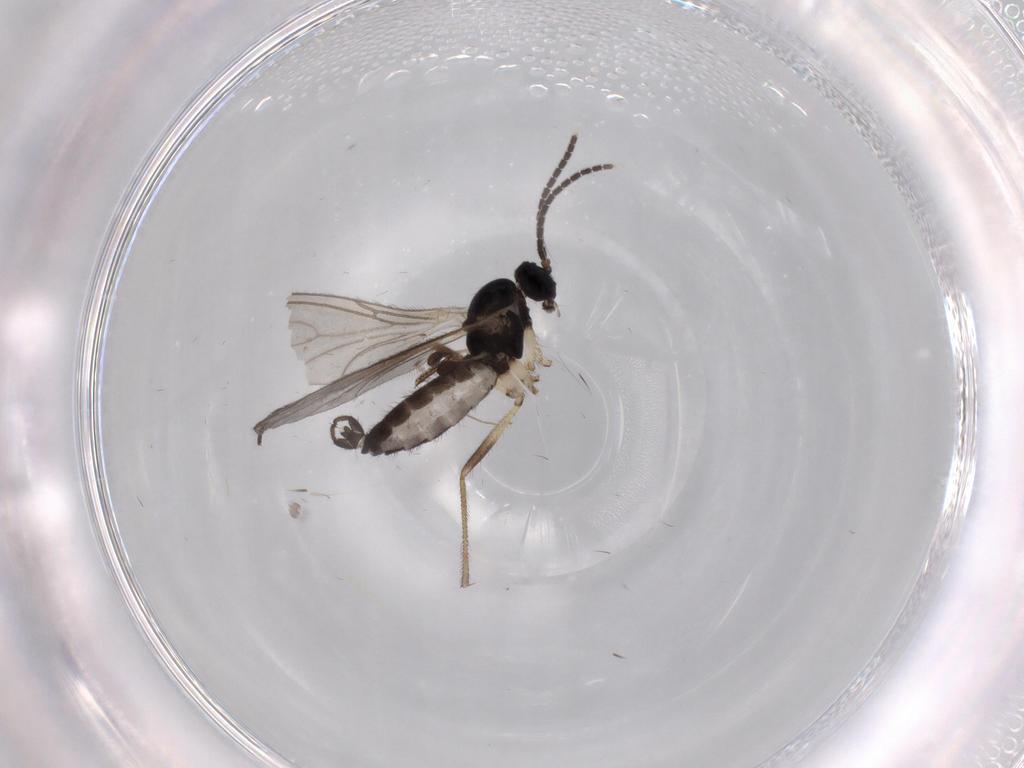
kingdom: Animalia
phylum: Arthropoda
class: Insecta
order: Diptera
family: Sciaridae
